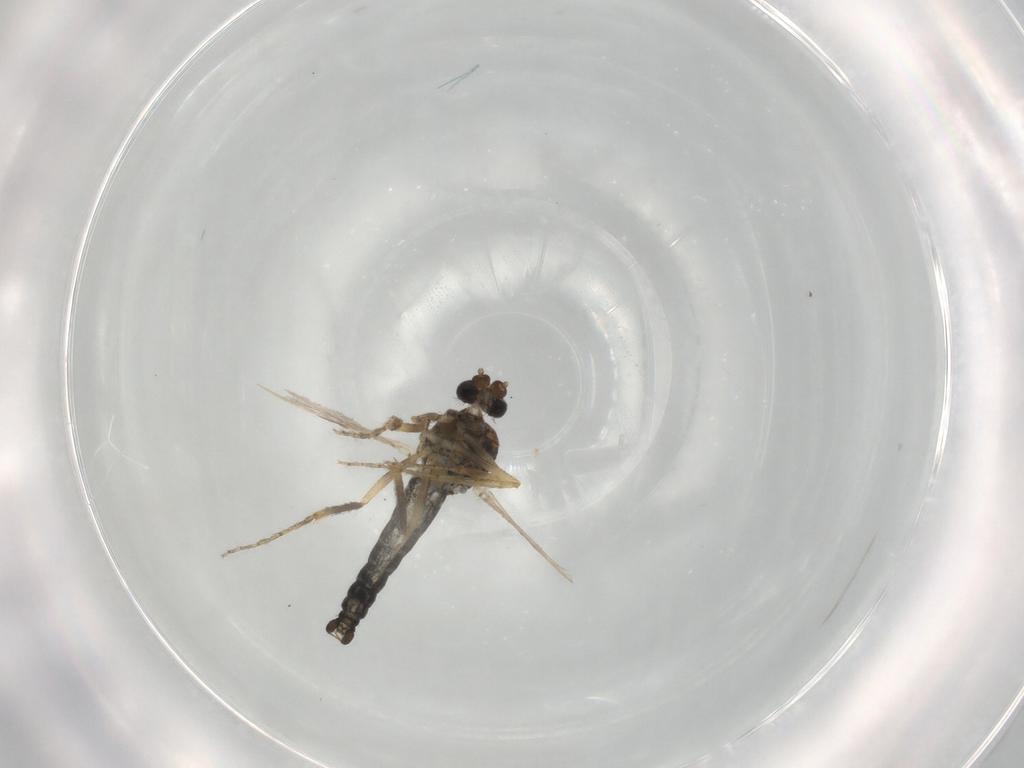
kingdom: Animalia
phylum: Arthropoda
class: Insecta
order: Diptera
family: Ceratopogonidae
